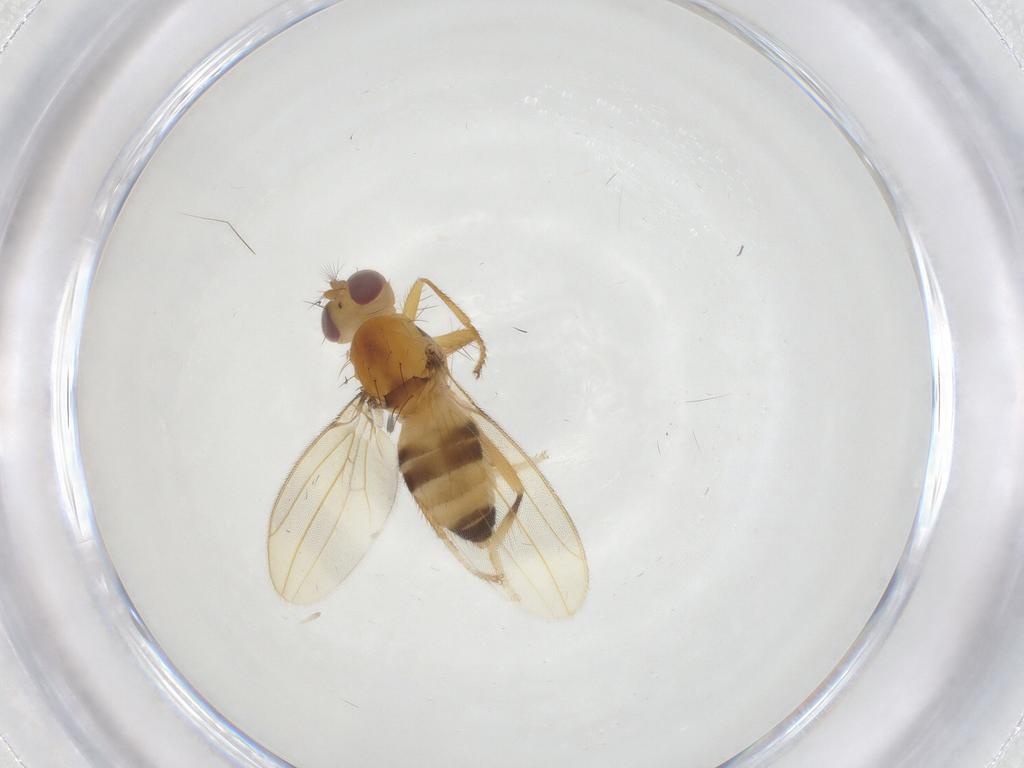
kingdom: Animalia
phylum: Arthropoda
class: Insecta
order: Diptera
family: Periscelididae
